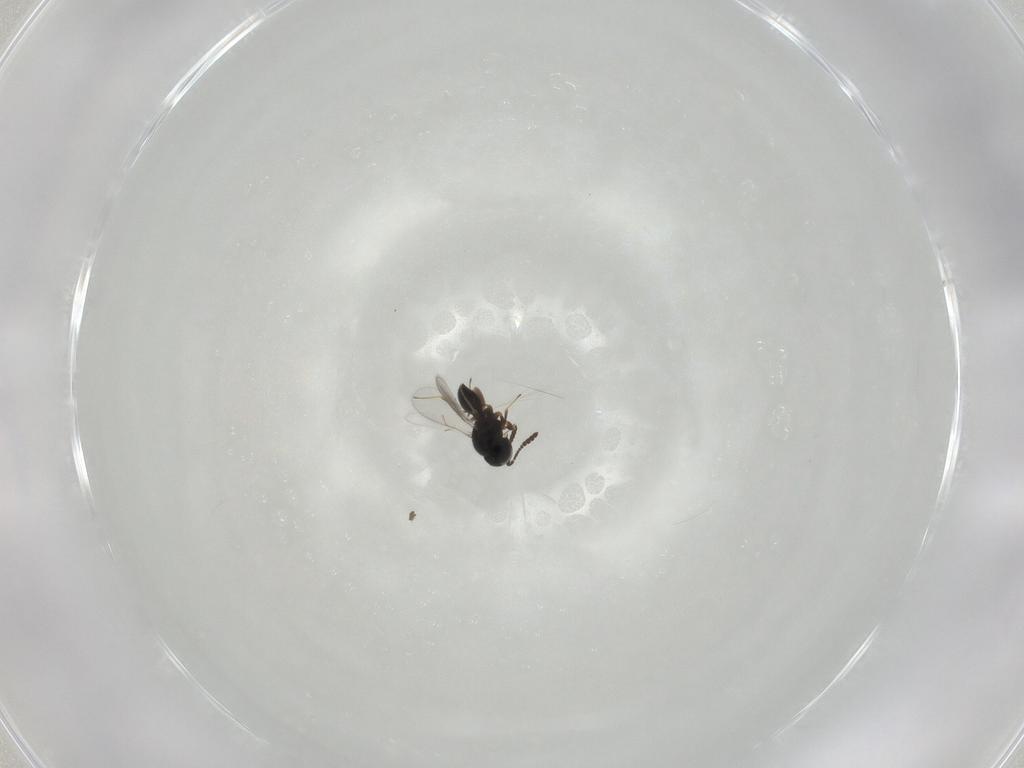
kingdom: Animalia
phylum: Arthropoda
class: Insecta
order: Hymenoptera
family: Scelionidae
